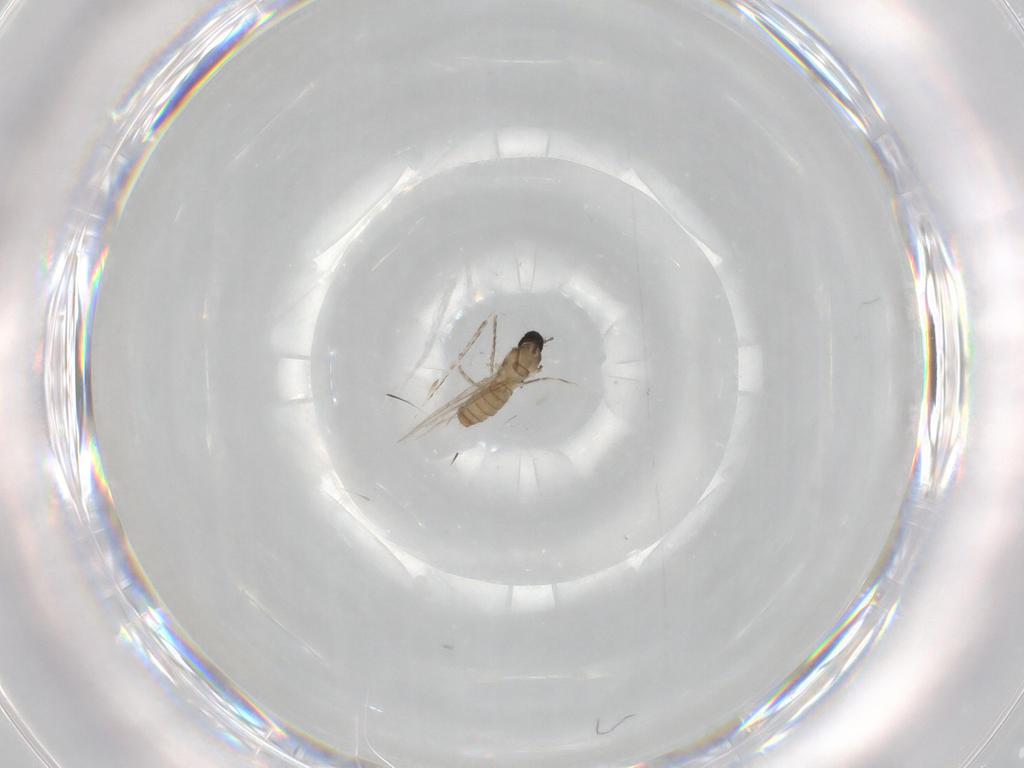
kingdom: Animalia
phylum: Arthropoda
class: Insecta
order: Diptera
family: Cecidomyiidae
